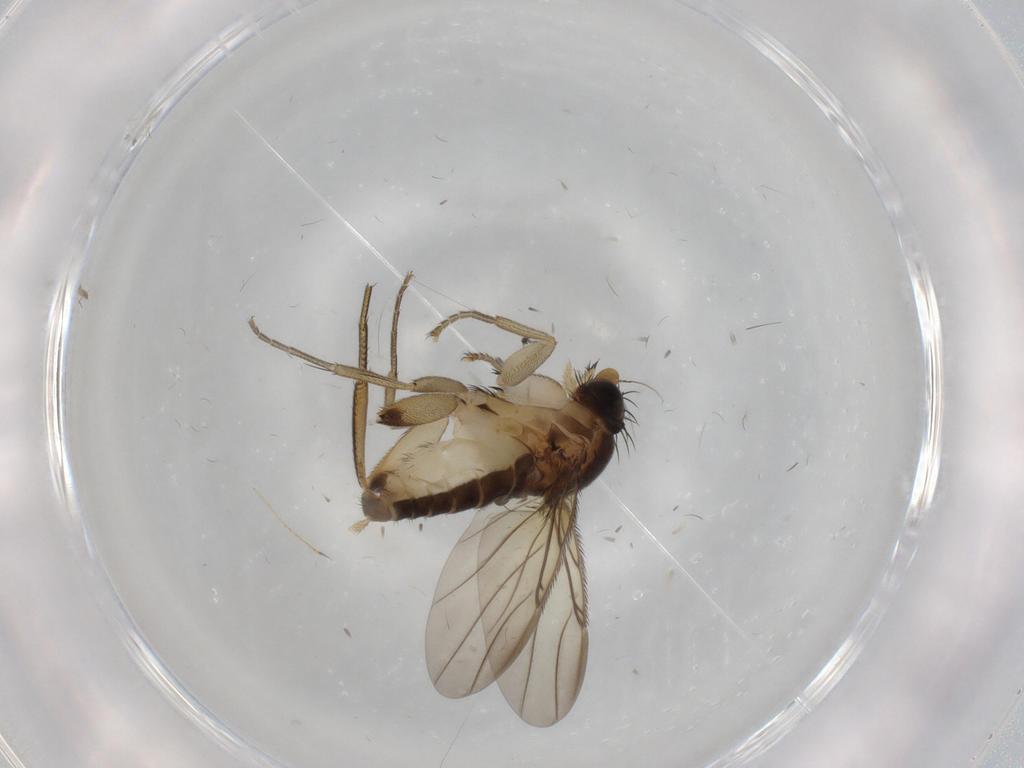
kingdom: Animalia
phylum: Arthropoda
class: Insecta
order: Diptera
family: Phoridae
